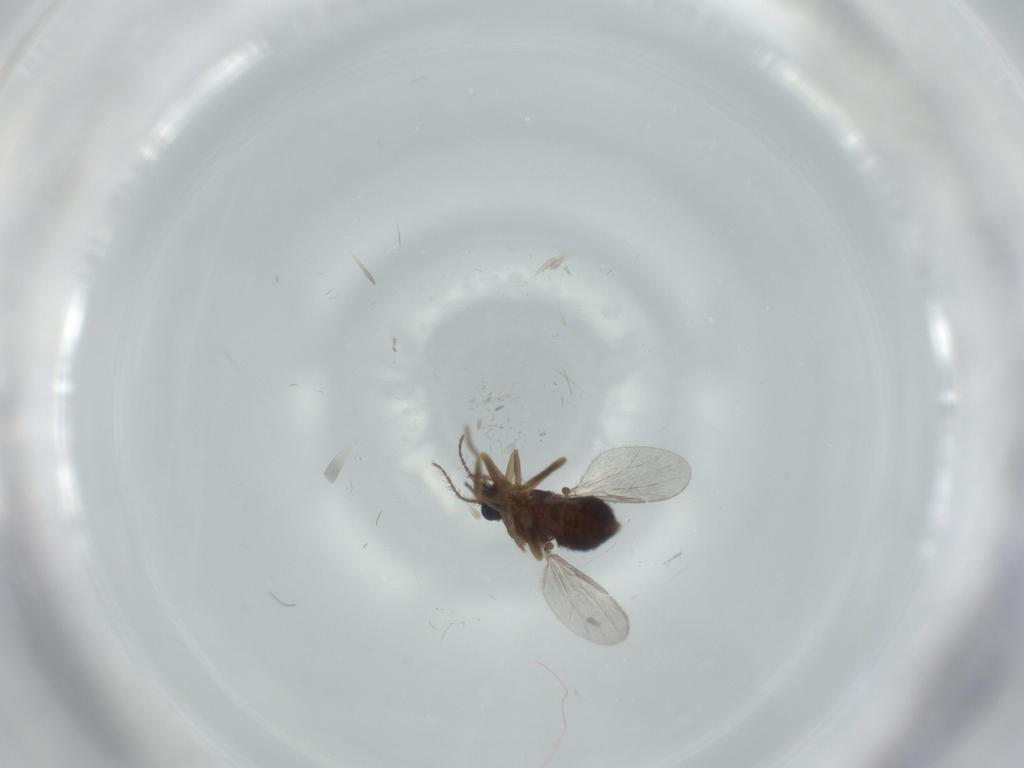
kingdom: Animalia
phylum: Arthropoda
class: Insecta
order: Diptera
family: Ceratopogonidae
